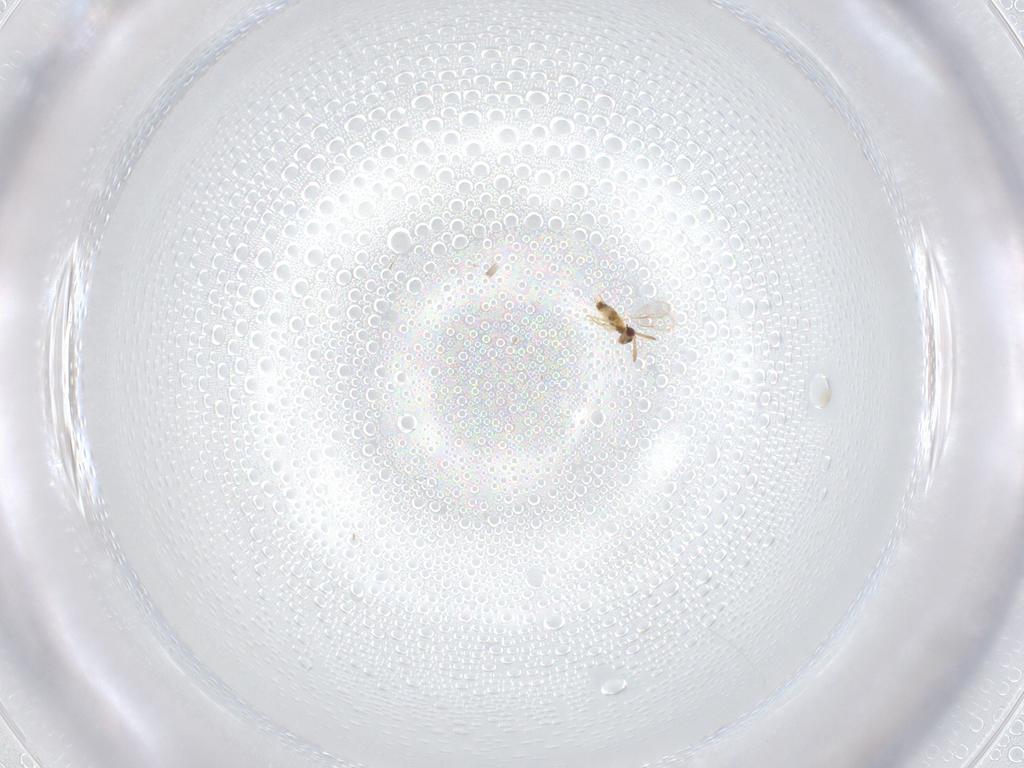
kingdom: Animalia
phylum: Arthropoda
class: Insecta
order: Hymenoptera
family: Aphelinidae
